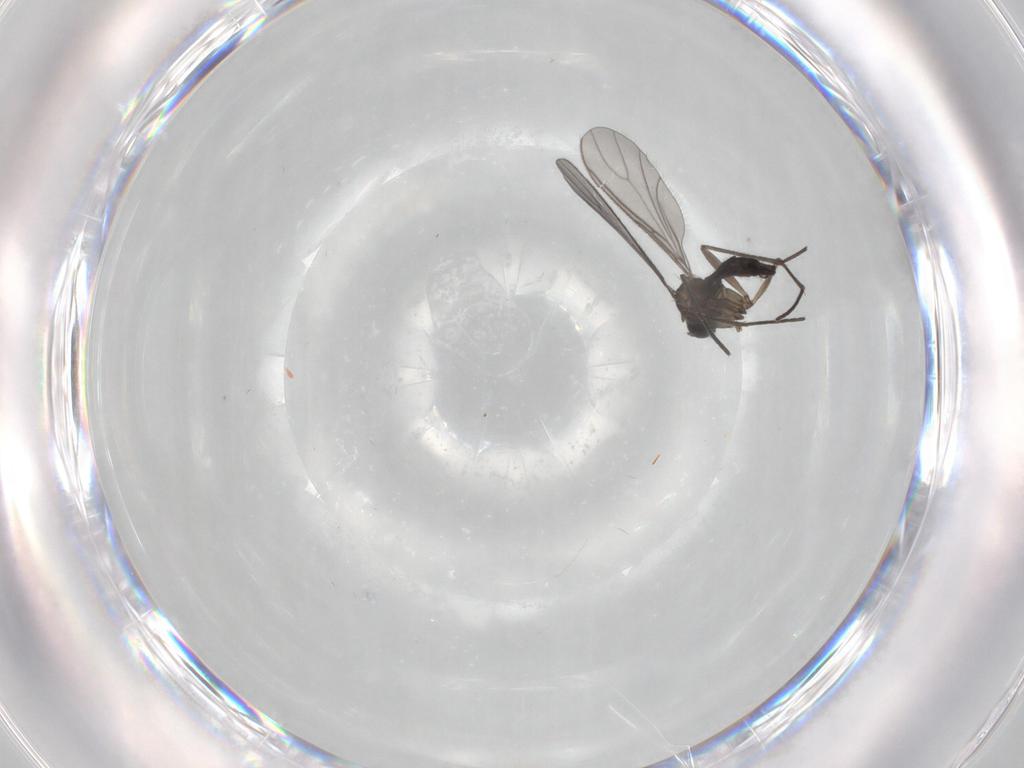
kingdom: Animalia
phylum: Arthropoda
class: Insecta
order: Diptera
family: Sciaridae
